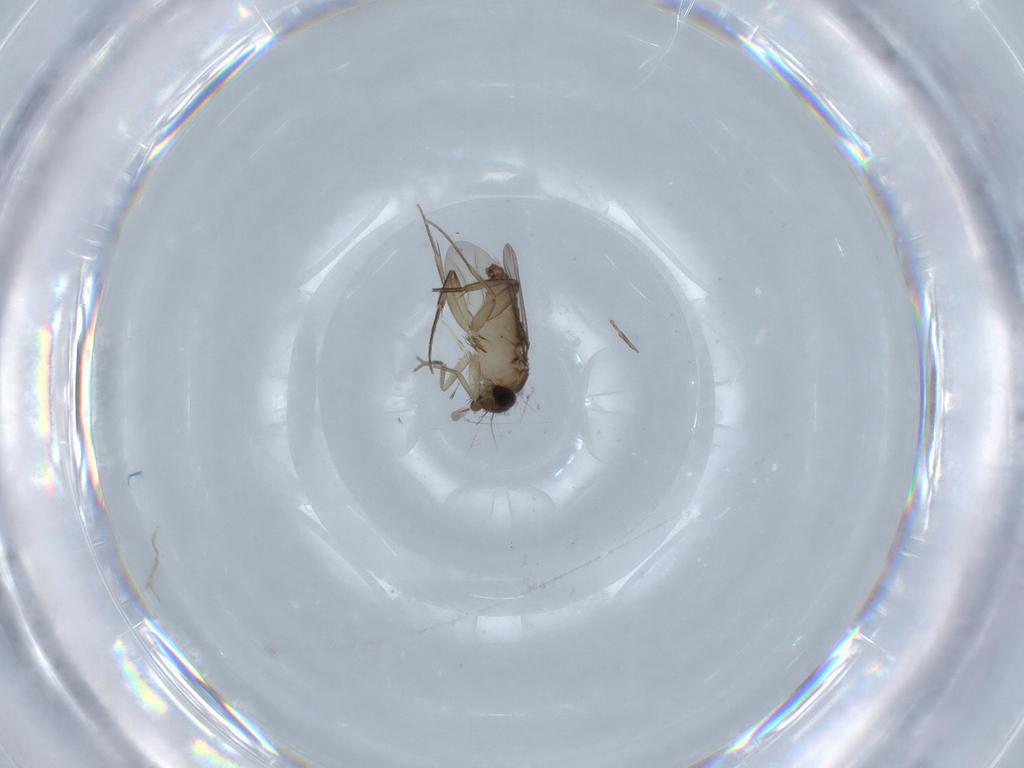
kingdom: Animalia
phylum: Arthropoda
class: Insecta
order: Diptera
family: Phoridae
